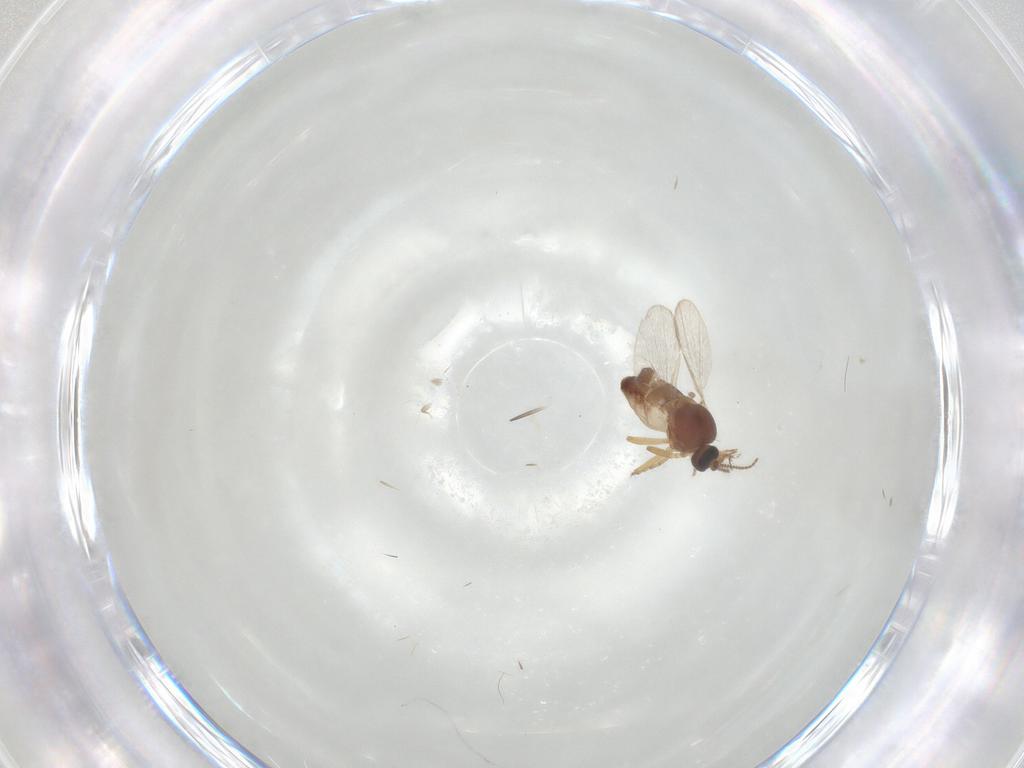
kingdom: Animalia
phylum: Arthropoda
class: Insecta
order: Diptera
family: Ceratopogonidae
